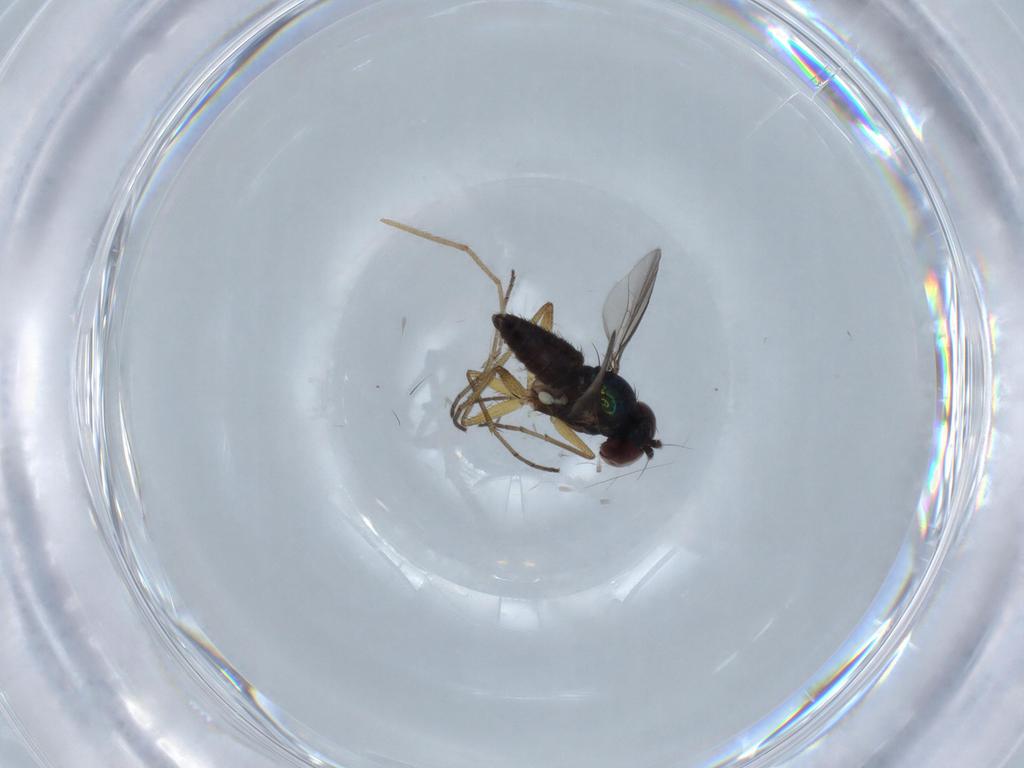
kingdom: Animalia
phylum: Arthropoda
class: Insecta
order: Diptera
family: Dolichopodidae
